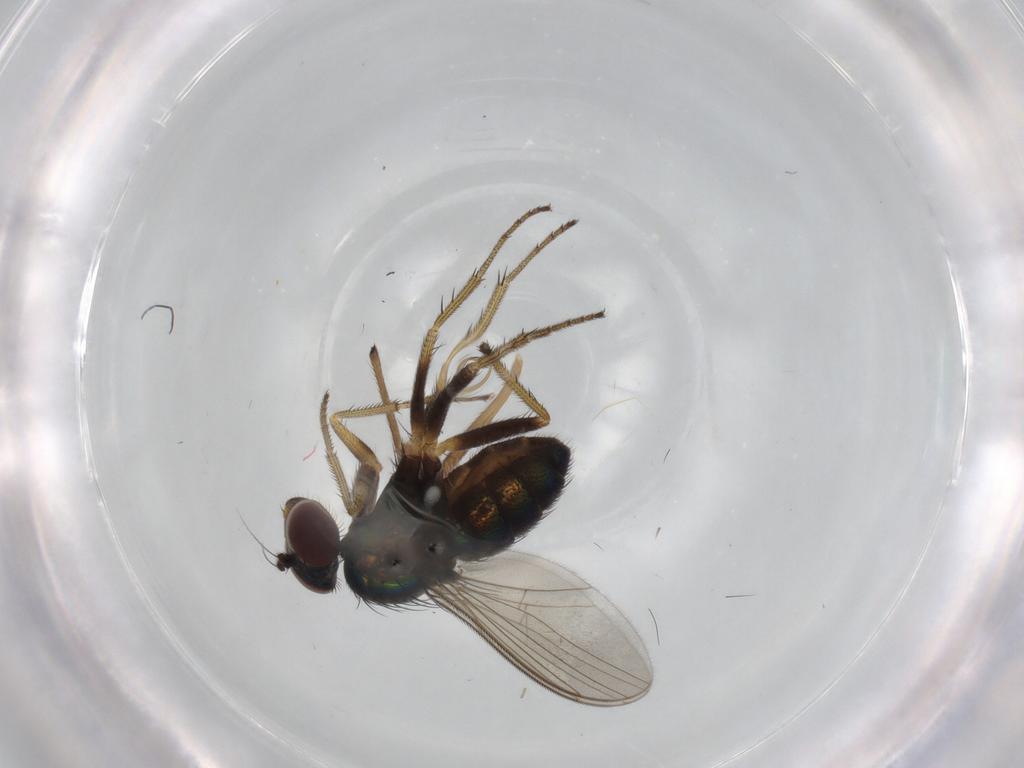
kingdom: Animalia
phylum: Arthropoda
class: Insecta
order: Diptera
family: Chironomidae
